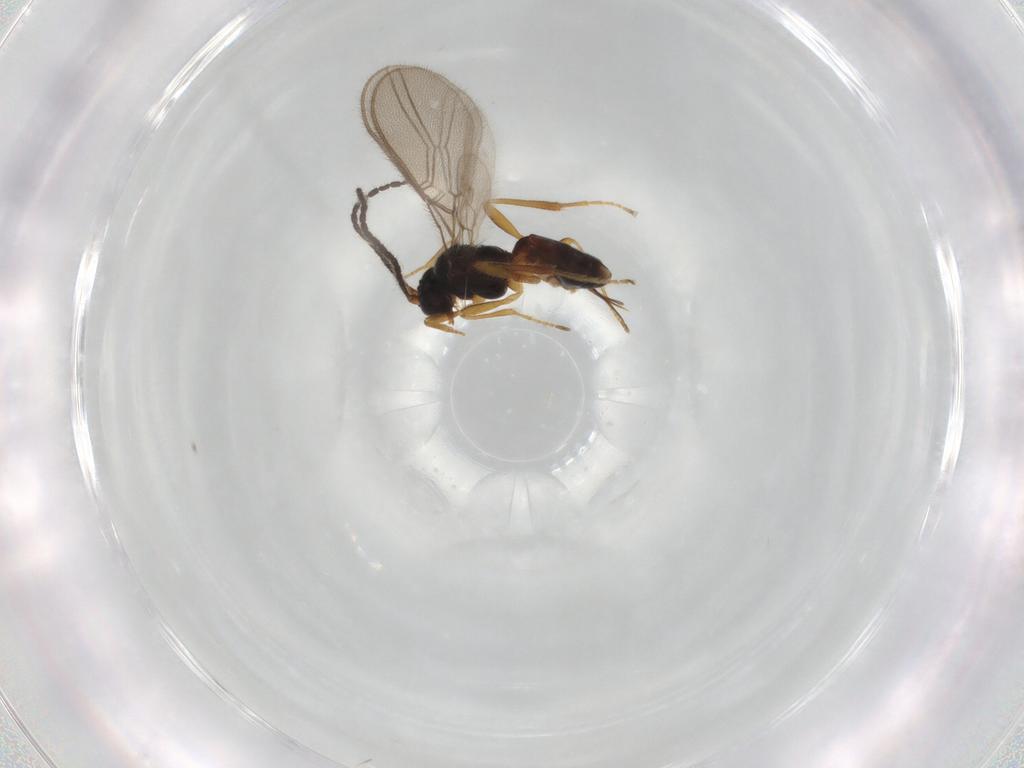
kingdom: Animalia
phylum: Arthropoda
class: Insecta
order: Hymenoptera
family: Braconidae
